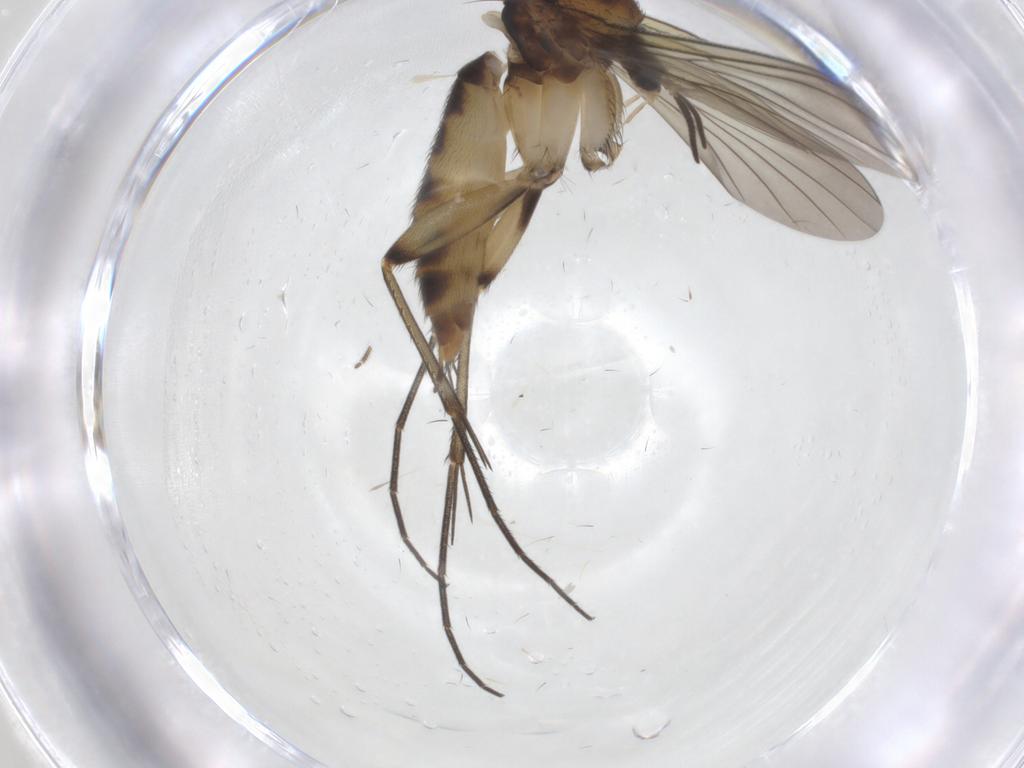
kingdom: Animalia
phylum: Arthropoda
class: Insecta
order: Diptera
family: Mycetophilidae
